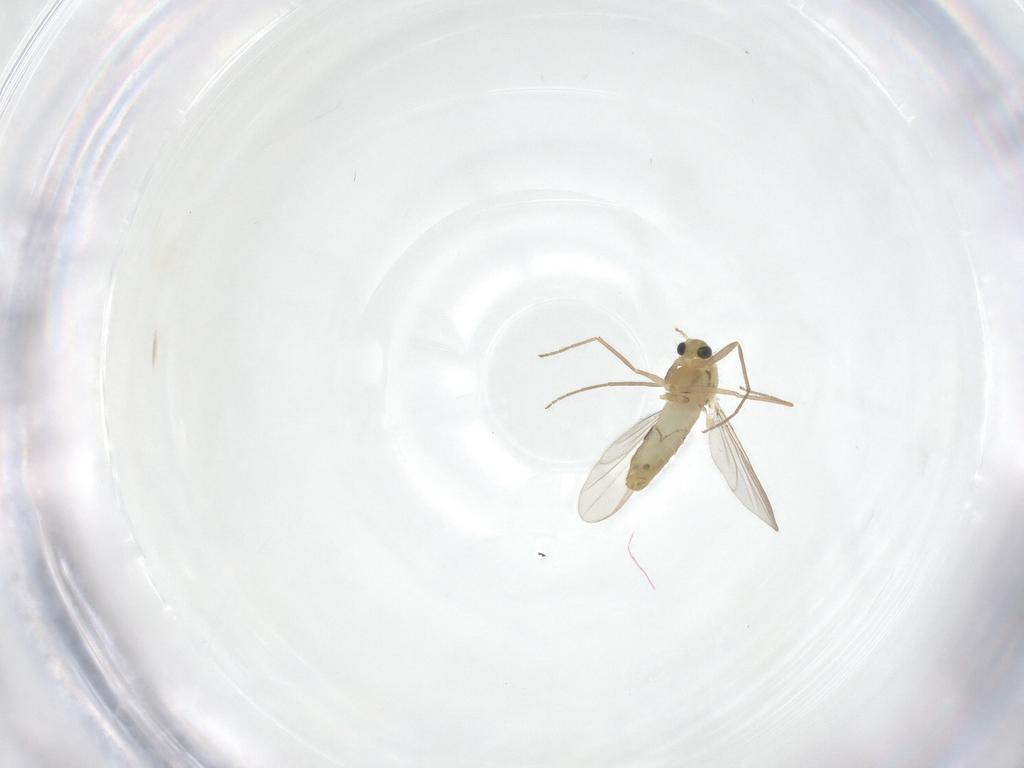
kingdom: Animalia
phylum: Arthropoda
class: Insecta
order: Diptera
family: Chironomidae
